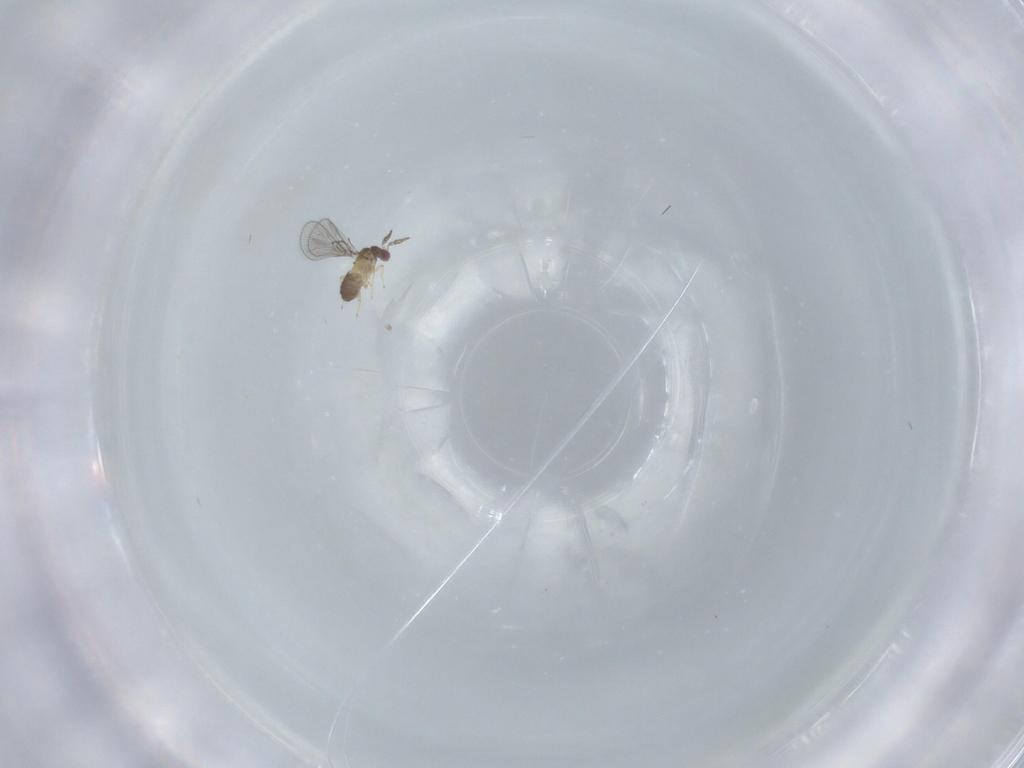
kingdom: Animalia
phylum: Arthropoda
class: Insecta
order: Hymenoptera
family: Trichogrammatidae
